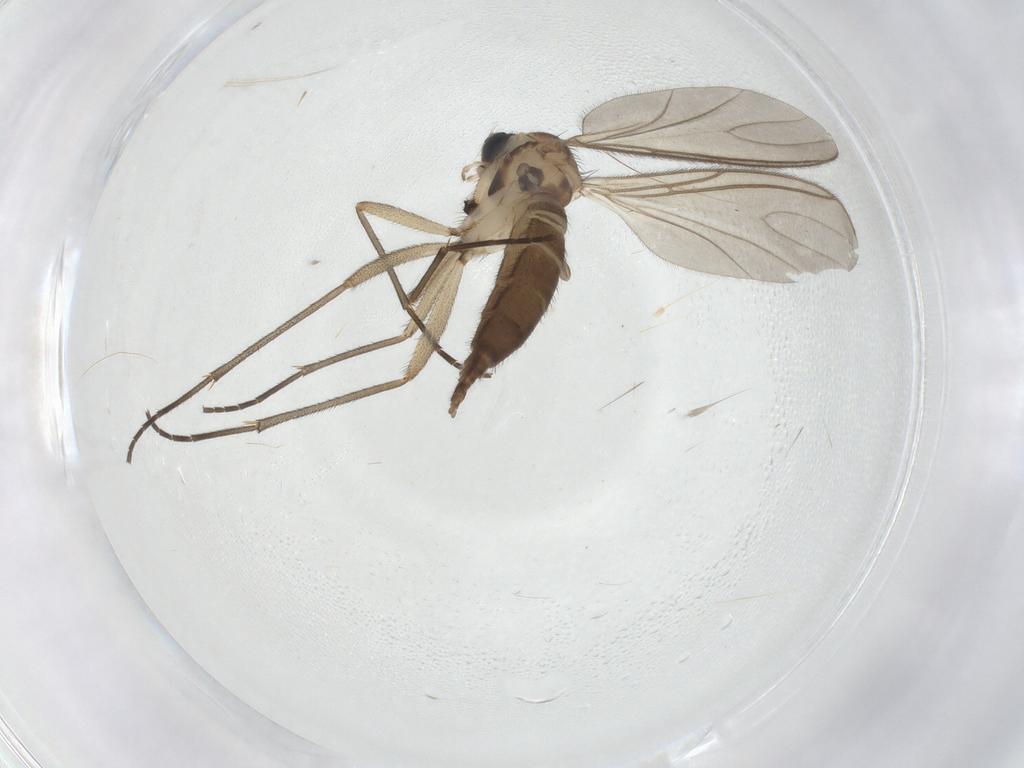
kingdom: Animalia
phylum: Arthropoda
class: Insecta
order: Diptera
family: Sciaridae
